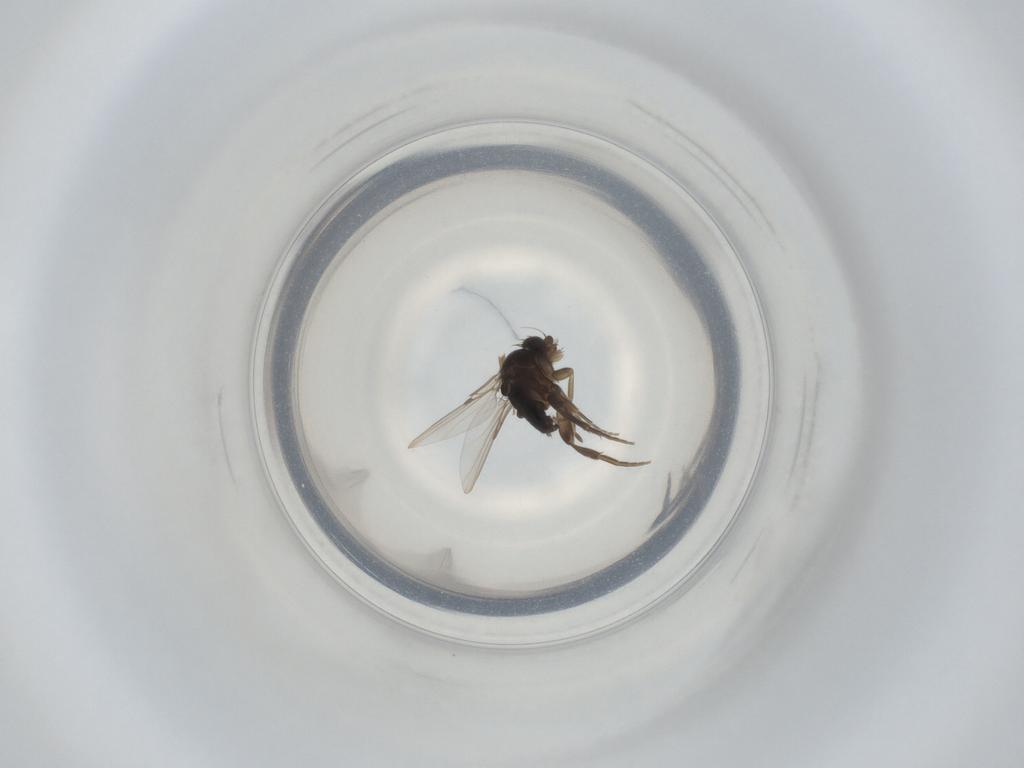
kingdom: Animalia
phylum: Arthropoda
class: Insecta
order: Diptera
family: Phoridae
